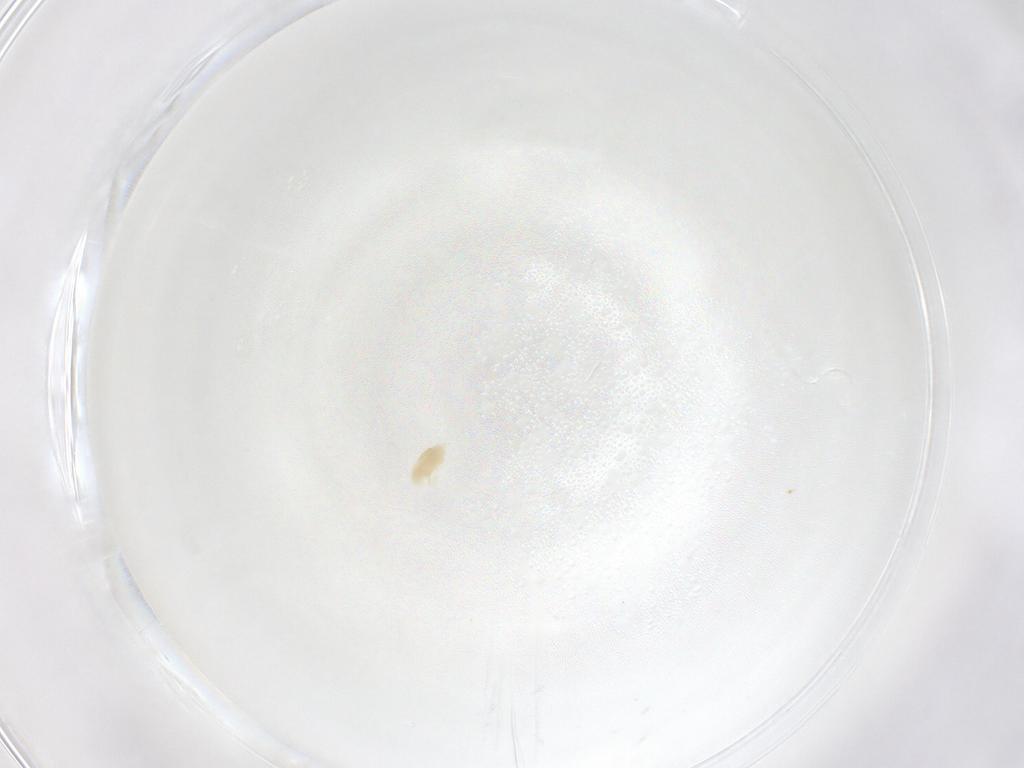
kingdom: Animalia
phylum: Arthropoda
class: Arachnida
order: Trombidiformes
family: Eupodidae
